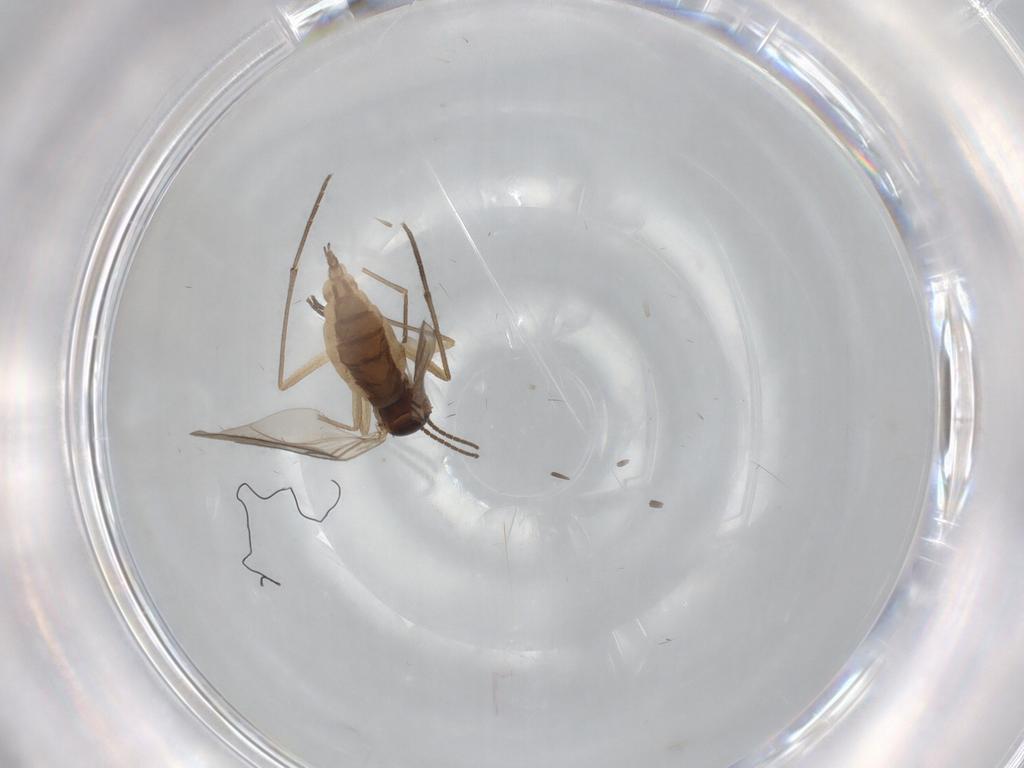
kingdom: Animalia
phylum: Arthropoda
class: Insecta
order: Diptera
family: Sciaridae
